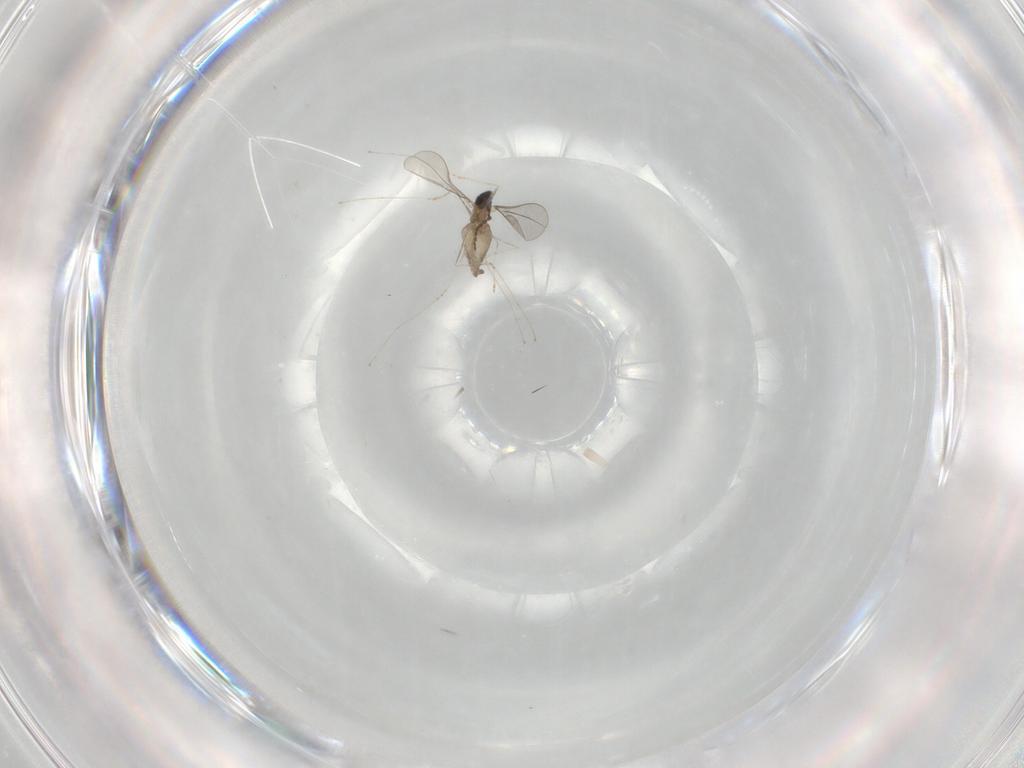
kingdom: Animalia
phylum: Arthropoda
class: Insecta
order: Diptera
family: Cecidomyiidae
